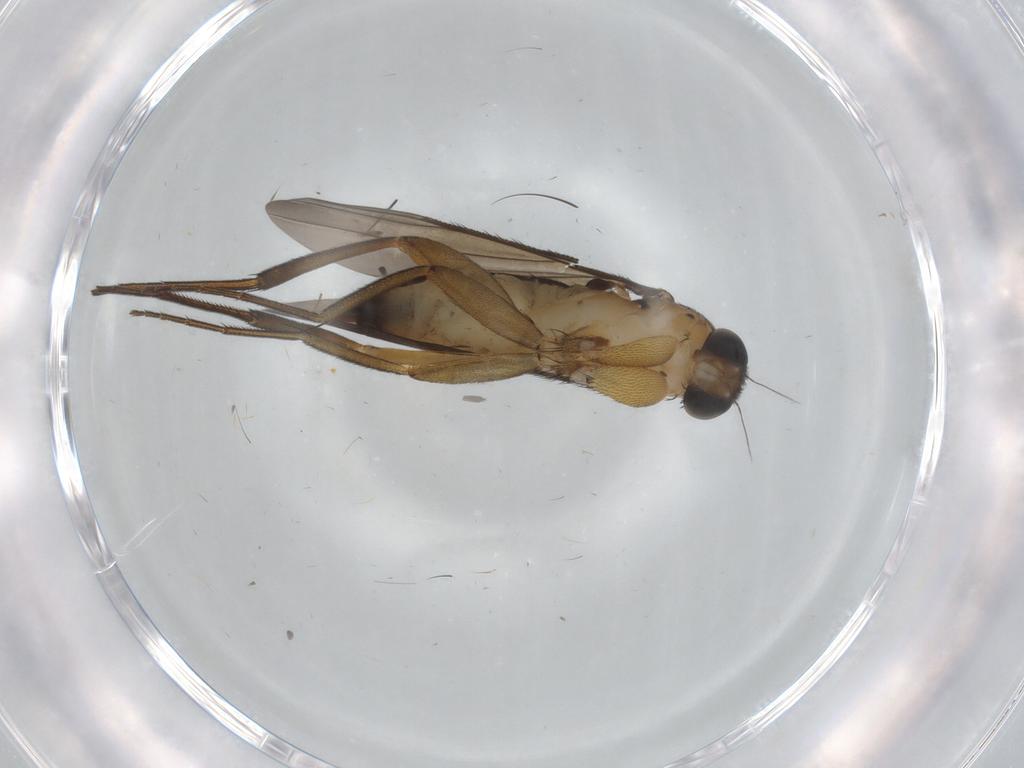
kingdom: Animalia
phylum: Arthropoda
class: Insecta
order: Diptera
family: Phoridae
